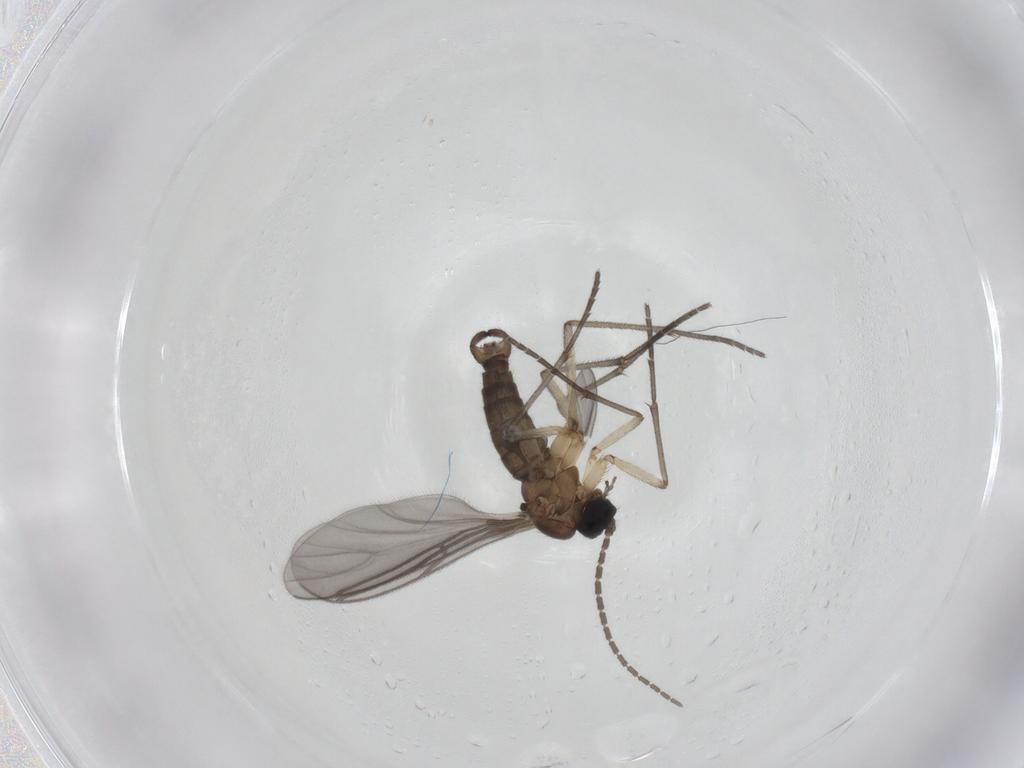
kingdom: Animalia
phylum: Arthropoda
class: Insecta
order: Diptera
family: Sciaridae
